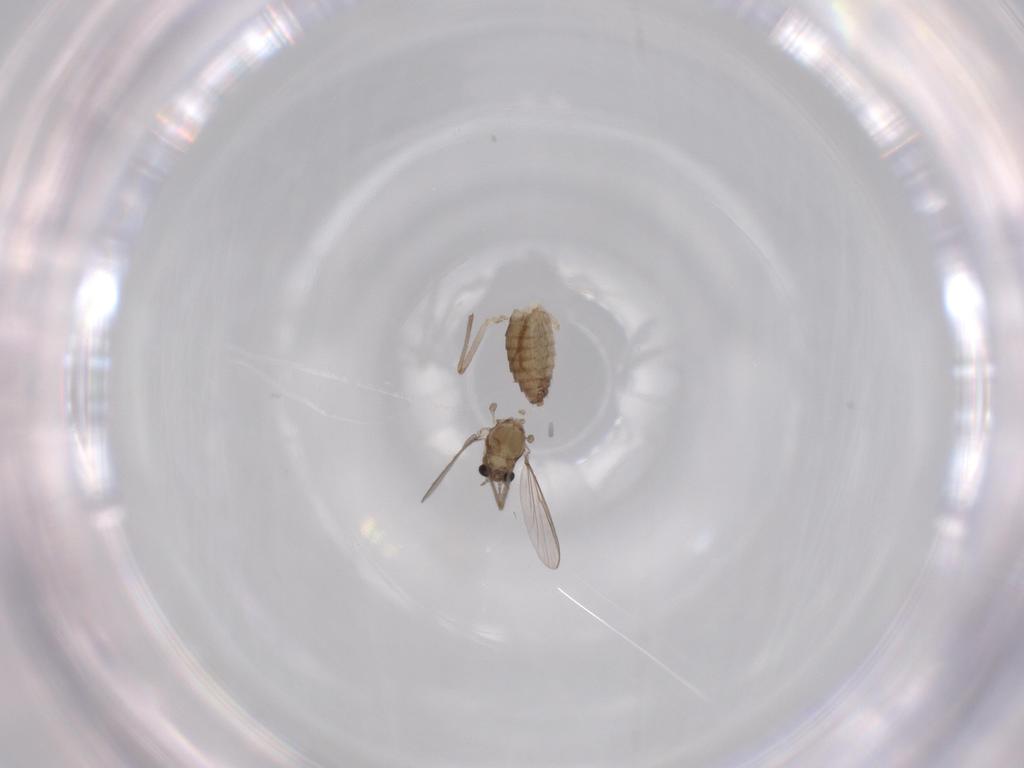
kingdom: Animalia
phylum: Arthropoda
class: Insecta
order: Diptera
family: Chironomidae
